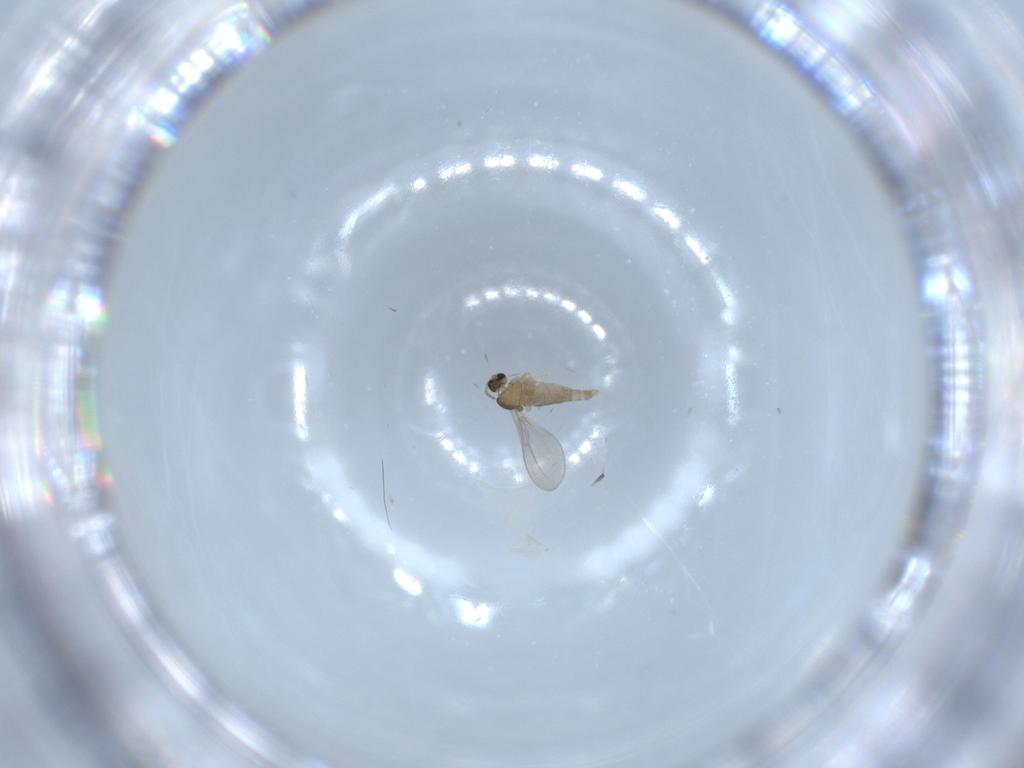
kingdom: Animalia
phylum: Arthropoda
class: Insecta
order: Diptera
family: Cecidomyiidae
